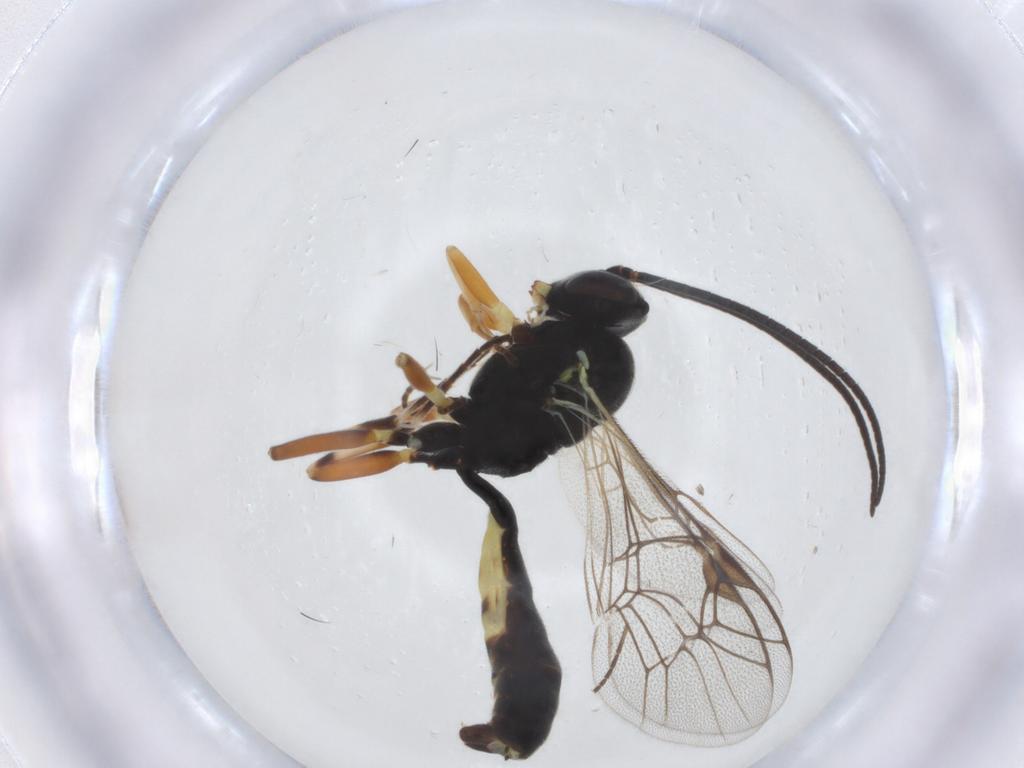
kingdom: Animalia
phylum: Arthropoda
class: Insecta
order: Hymenoptera
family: Ichneumonidae
